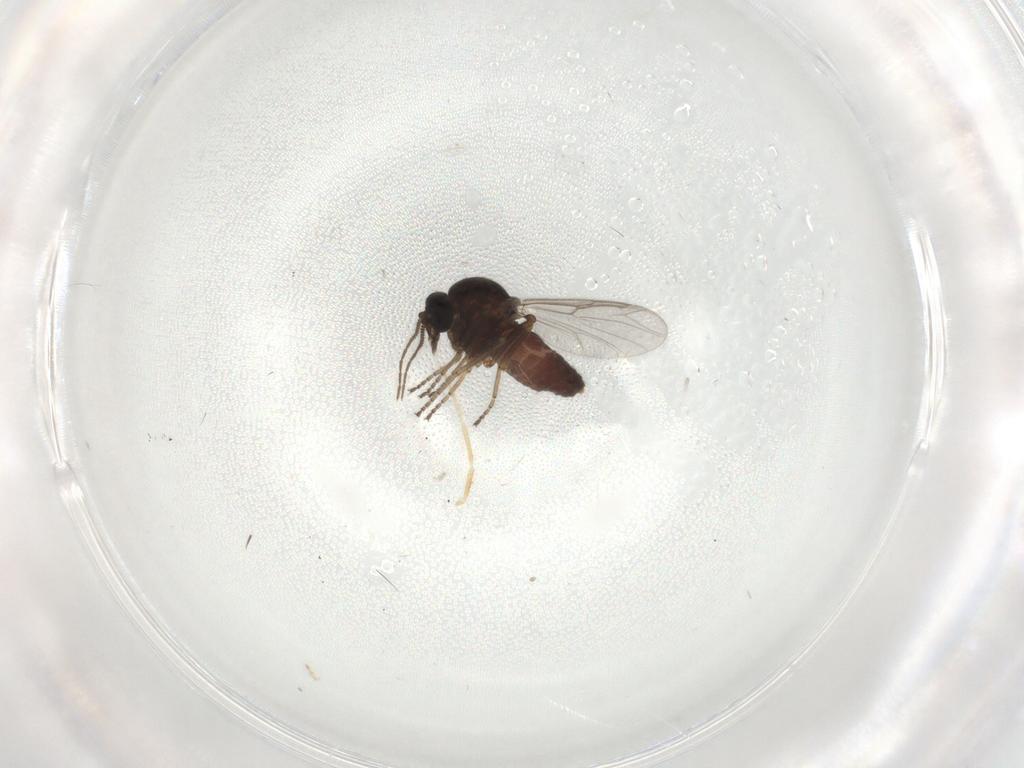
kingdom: Animalia
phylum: Arthropoda
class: Insecta
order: Diptera
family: Ceratopogonidae
